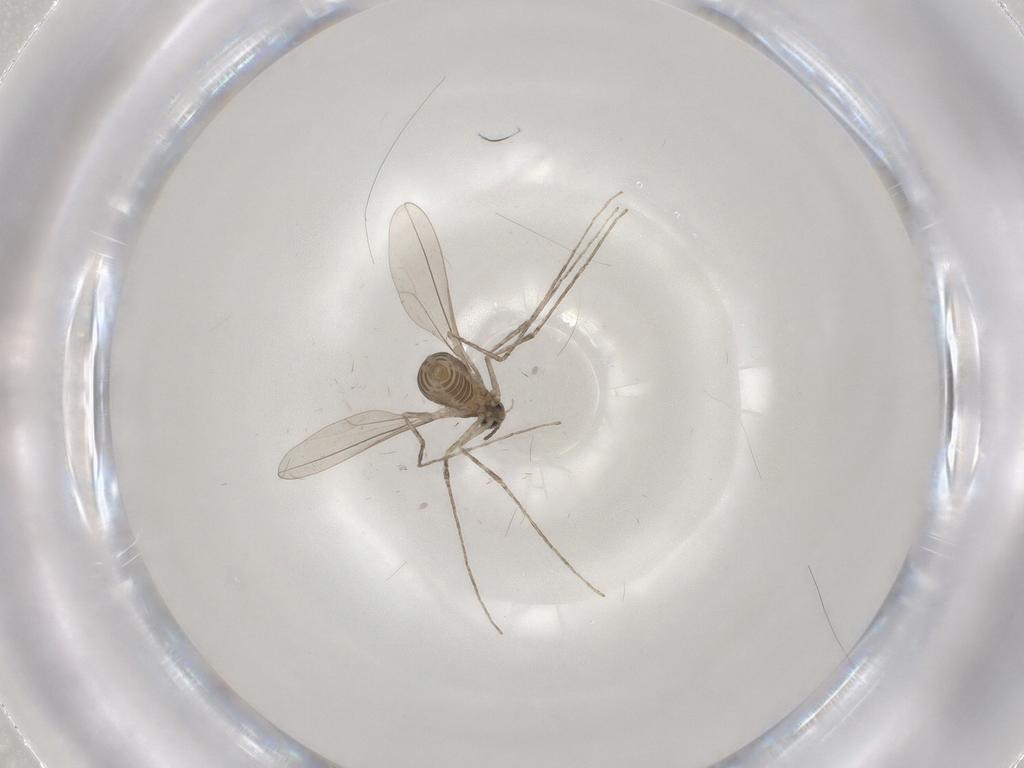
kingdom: Animalia
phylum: Arthropoda
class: Insecta
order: Diptera
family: Cecidomyiidae
